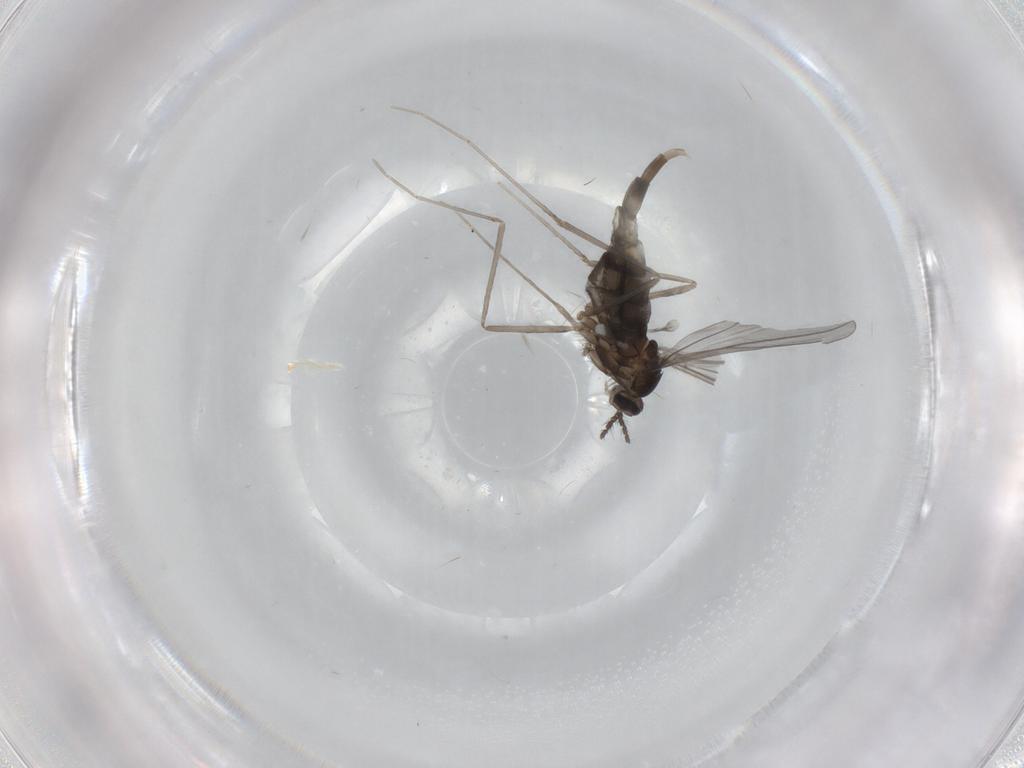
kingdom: Animalia
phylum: Arthropoda
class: Insecta
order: Diptera
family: Cecidomyiidae
